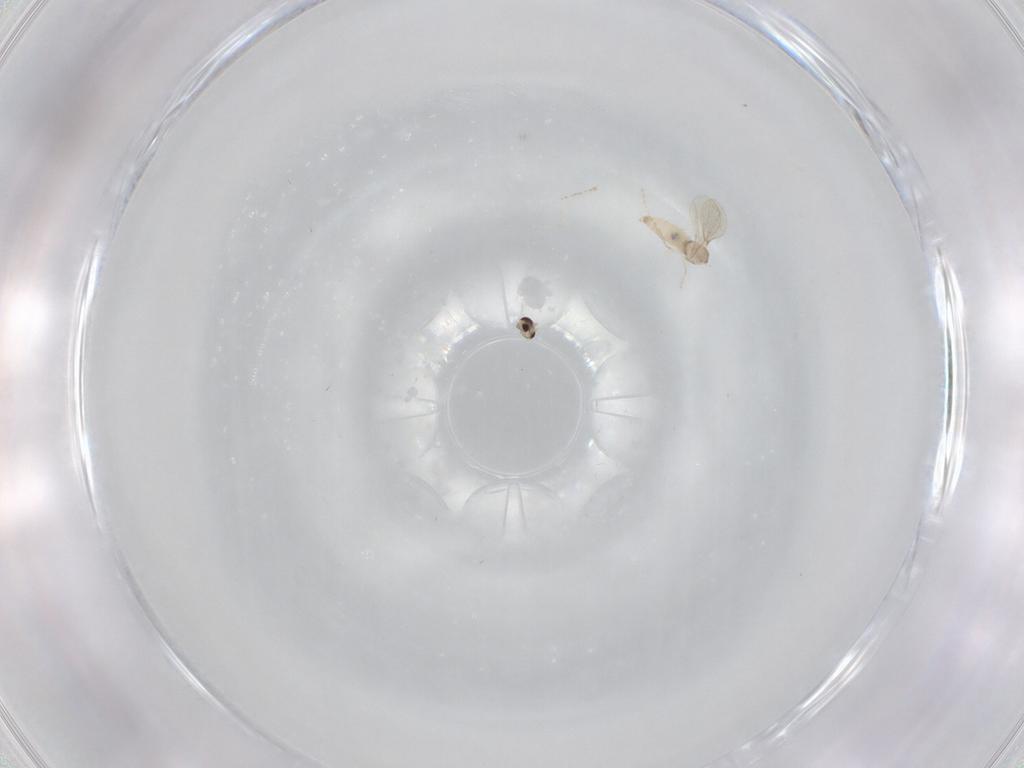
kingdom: Animalia
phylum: Arthropoda
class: Insecta
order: Diptera
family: Cecidomyiidae
